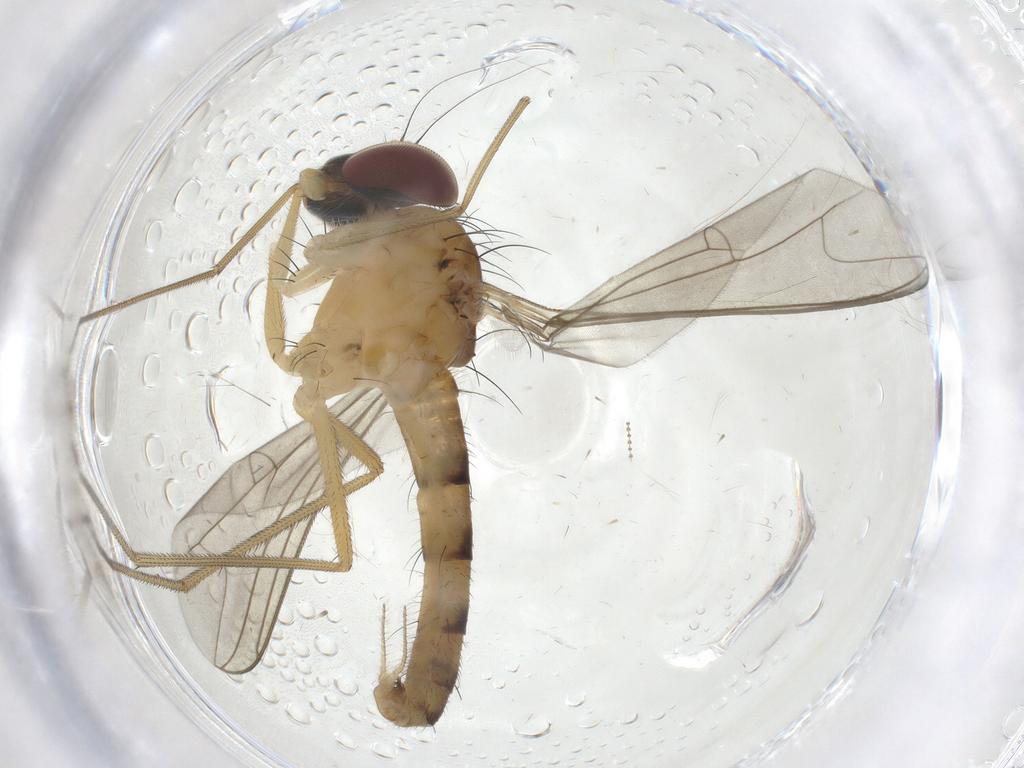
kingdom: Animalia
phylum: Arthropoda
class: Insecta
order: Diptera
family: Dolichopodidae
